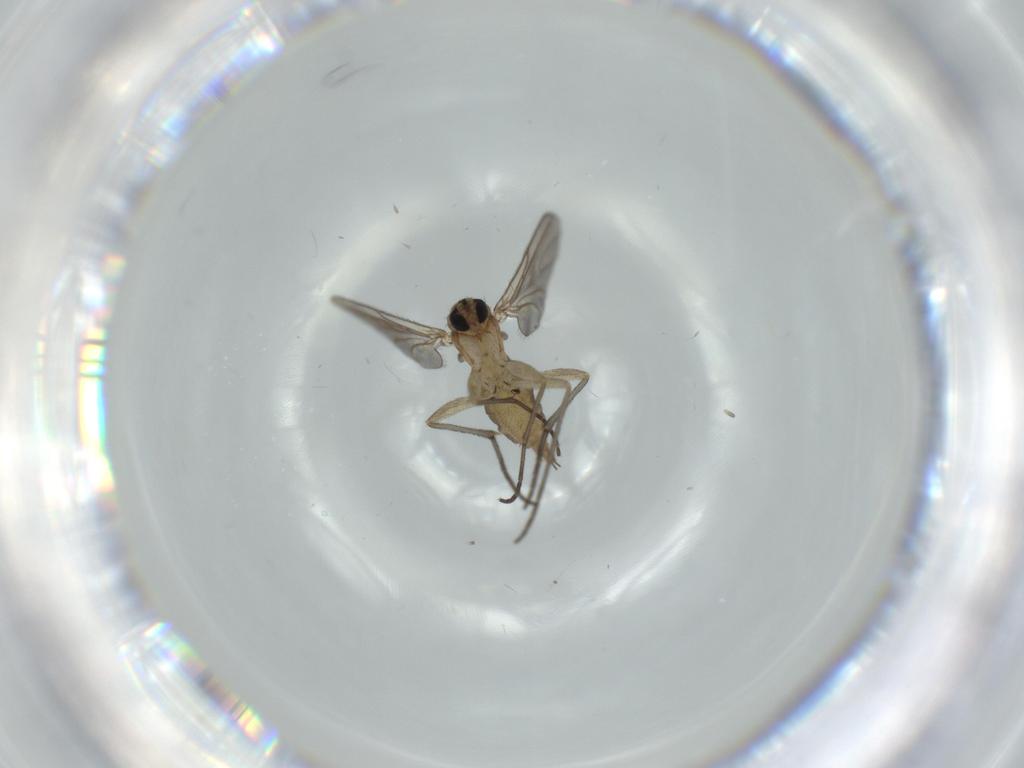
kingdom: Animalia
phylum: Arthropoda
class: Insecta
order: Diptera
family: Sciaridae
